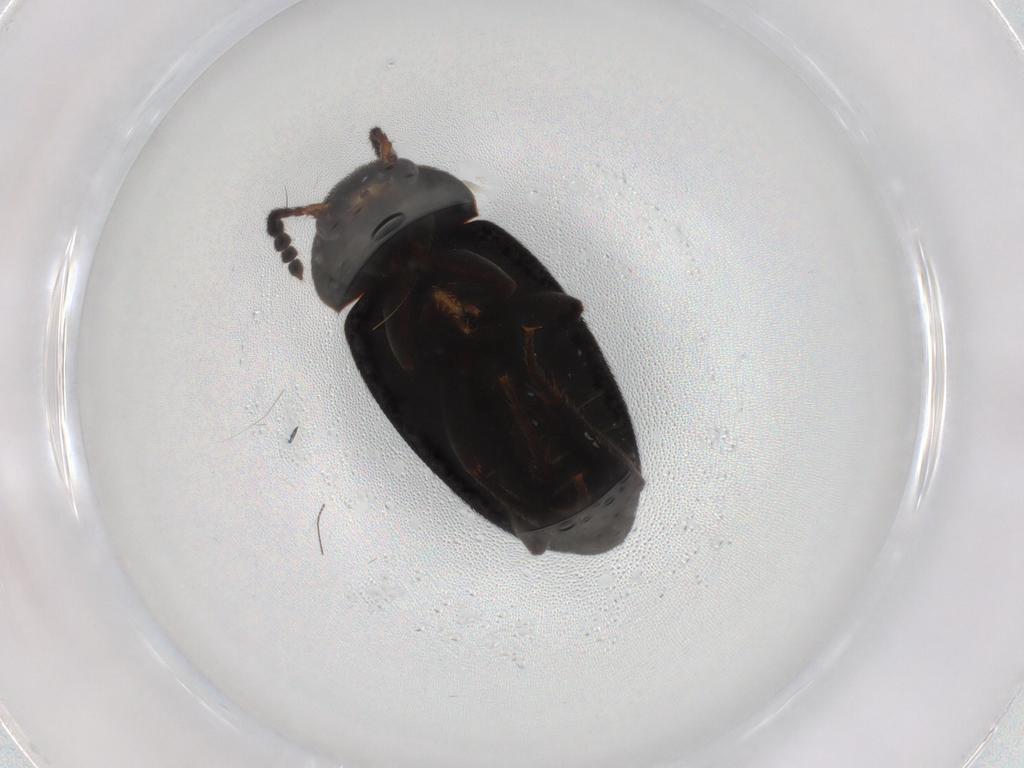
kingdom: Animalia
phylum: Arthropoda
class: Insecta
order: Coleoptera
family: Leiodidae
